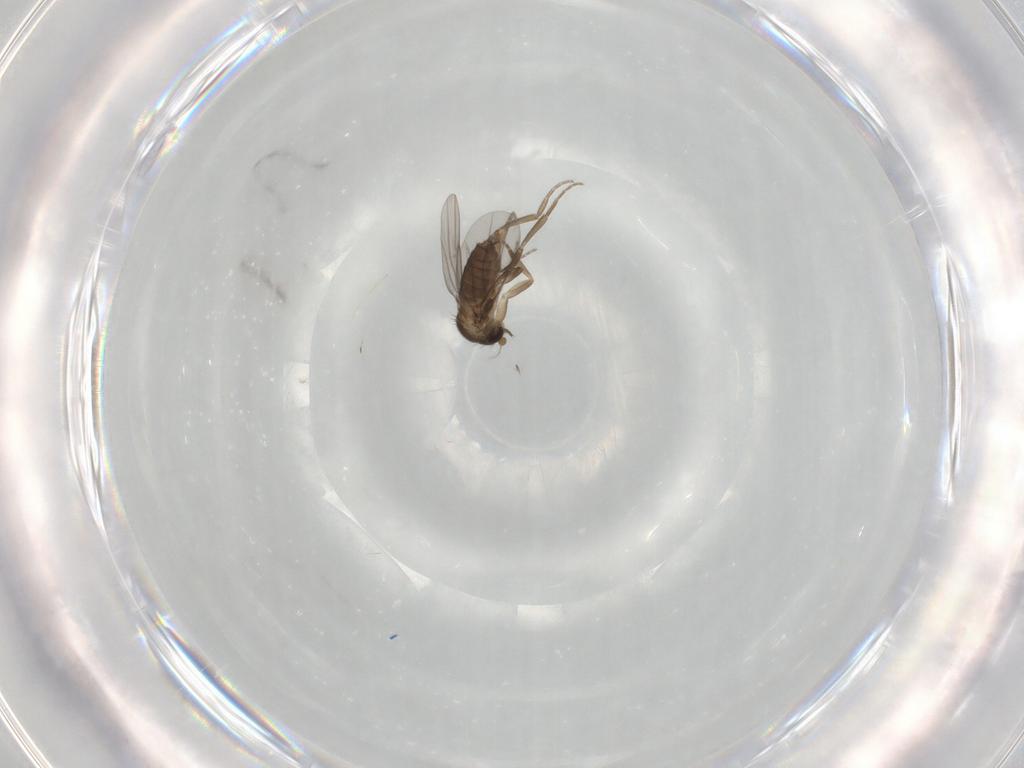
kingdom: Animalia
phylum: Arthropoda
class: Insecta
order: Diptera
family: Phoridae
